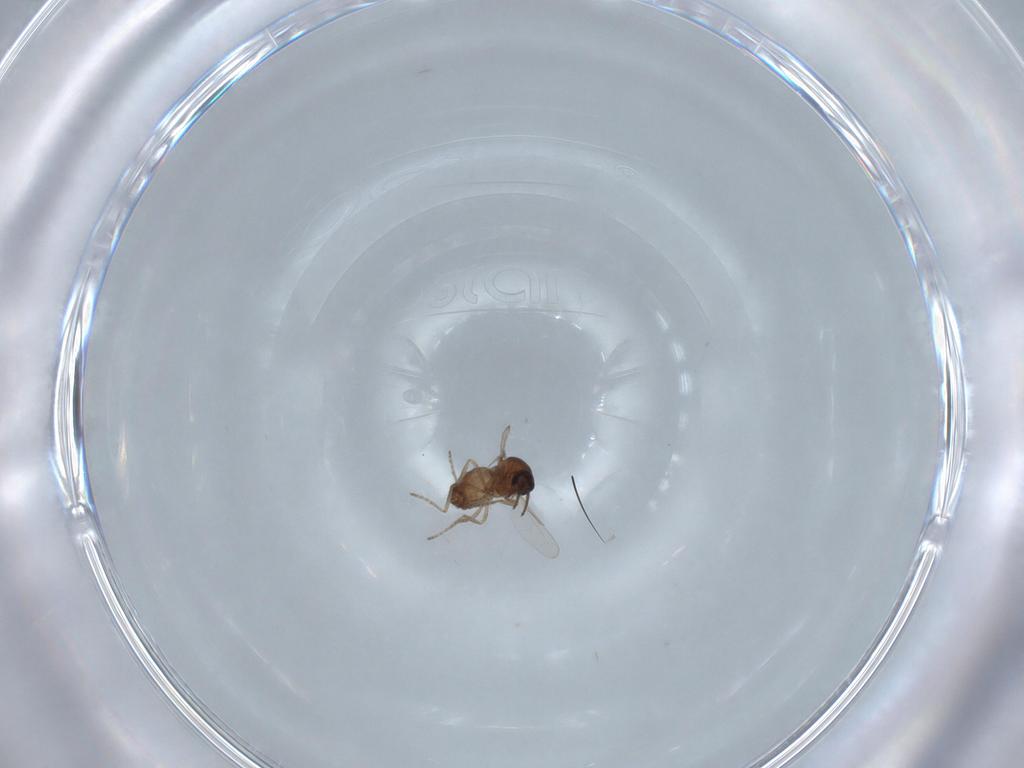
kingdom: Animalia
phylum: Arthropoda
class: Insecta
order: Diptera
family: Ceratopogonidae
